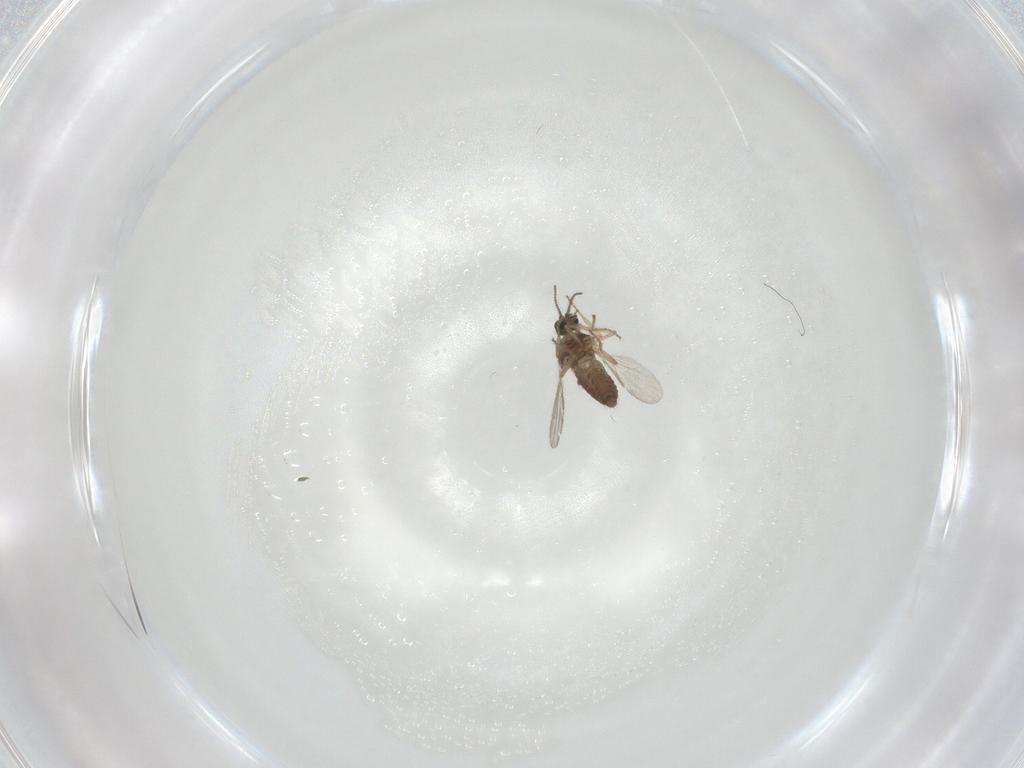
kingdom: Animalia
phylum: Arthropoda
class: Insecta
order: Diptera
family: Ceratopogonidae
